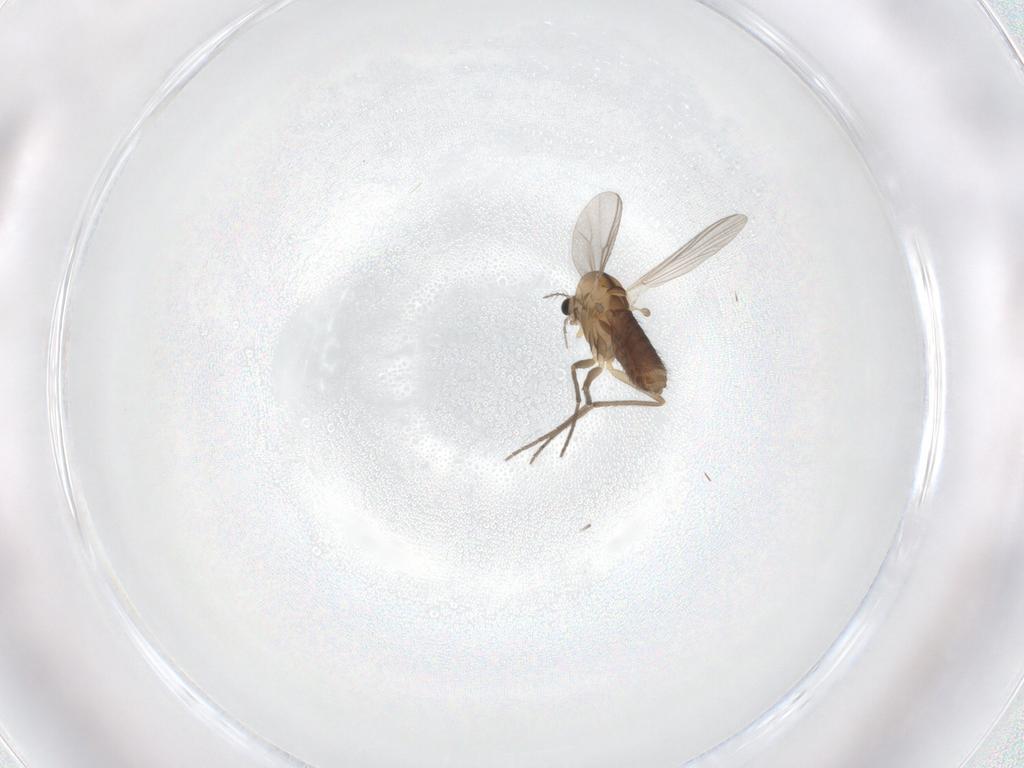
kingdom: Animalia
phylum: Arthropoda
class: Insecta
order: Diptera
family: Chironomidae
